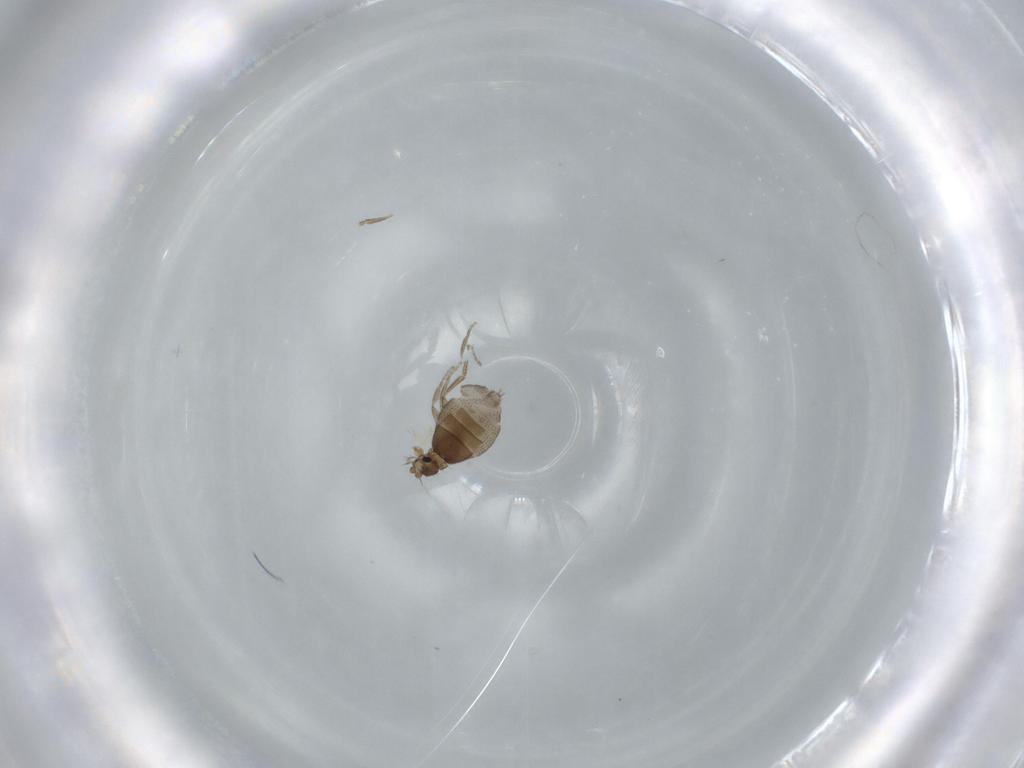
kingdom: Animalia
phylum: Arthropoda
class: Insecta
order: Diptera
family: Phoridae
